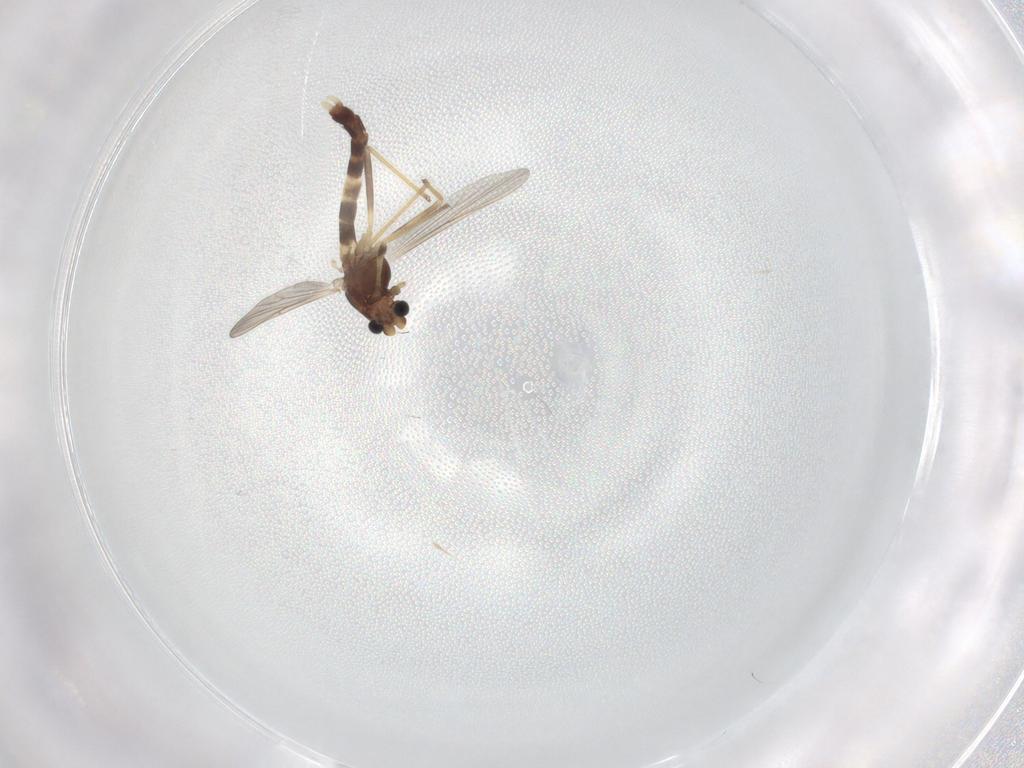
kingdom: Animalia
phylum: Arthropoda
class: Insecta
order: Diptera
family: Chironomidae
